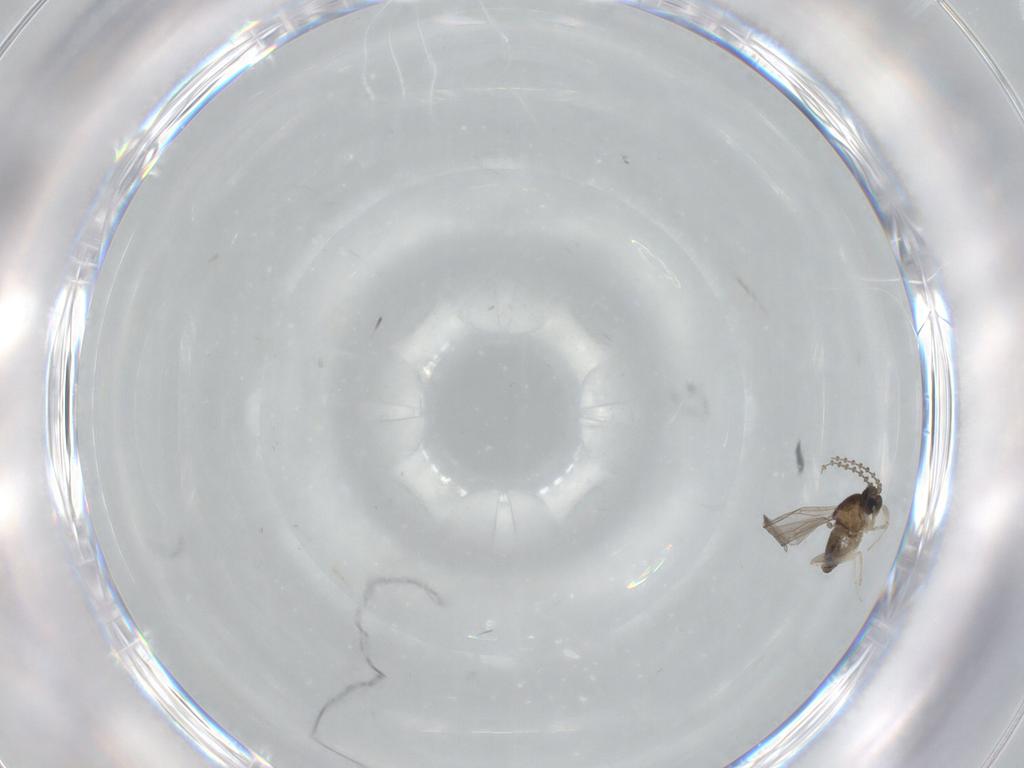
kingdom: Animalia
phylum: Arthropoda
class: Insecta
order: Diptera
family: Cecidomyiidae
